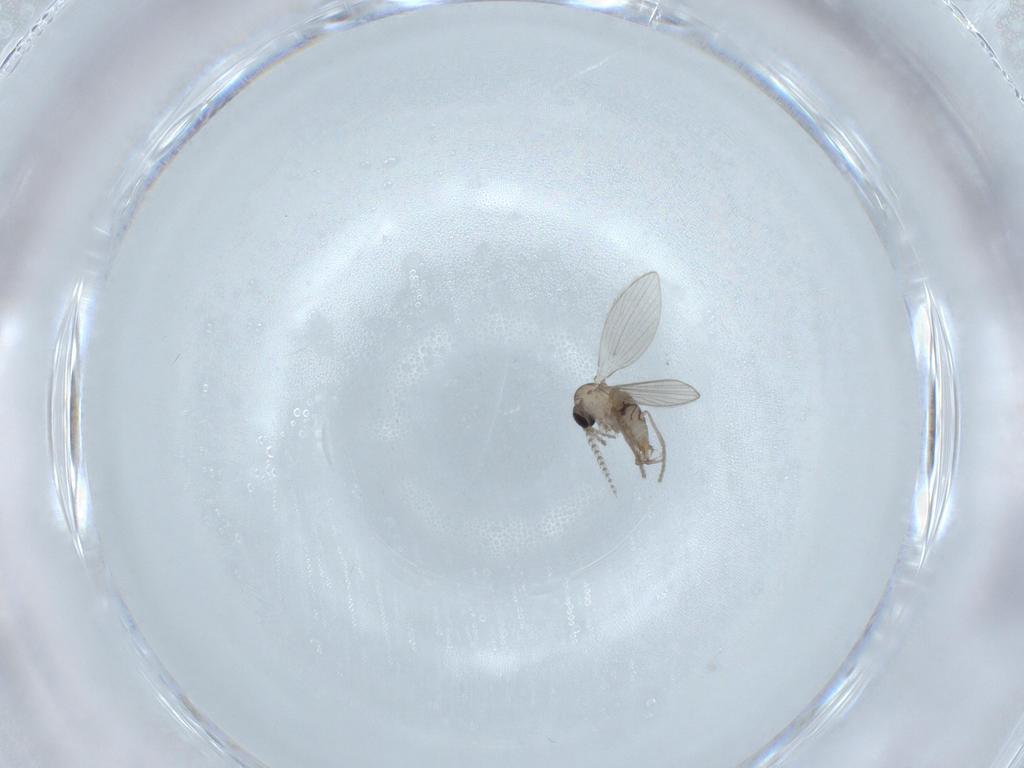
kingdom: Animalia
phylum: Arthropoda
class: Insecta
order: Diptera
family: Psychodidae
